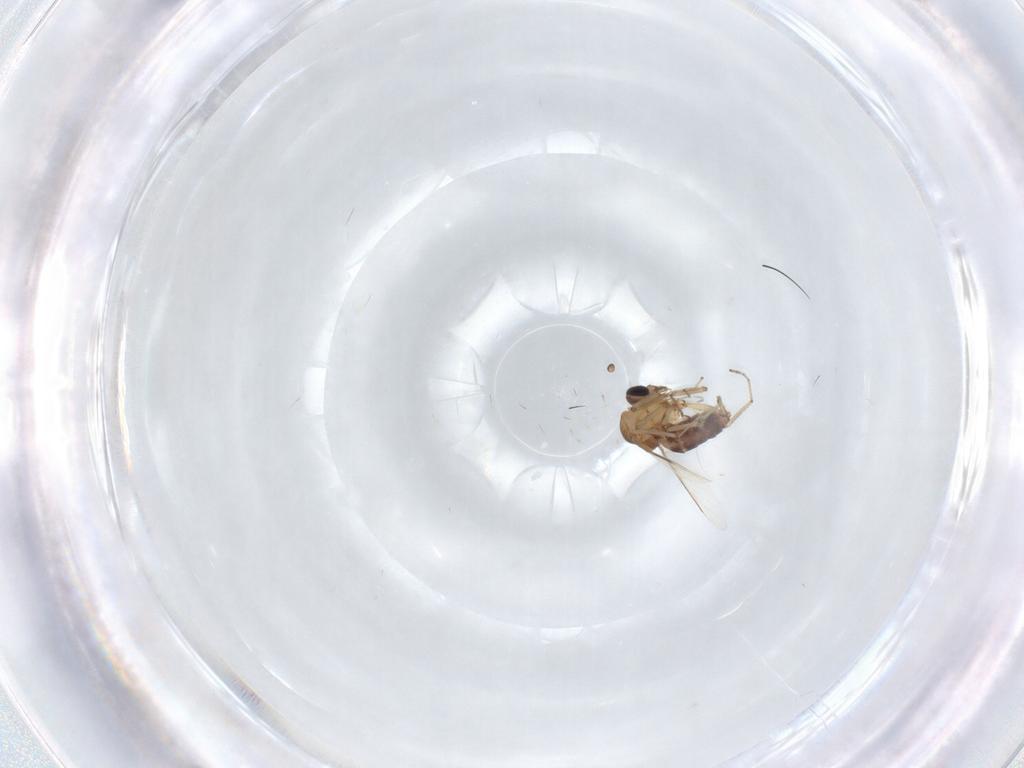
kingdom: Animalia
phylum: Arthropoda
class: Insecta
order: Diptera
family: Ceratopogonidae
